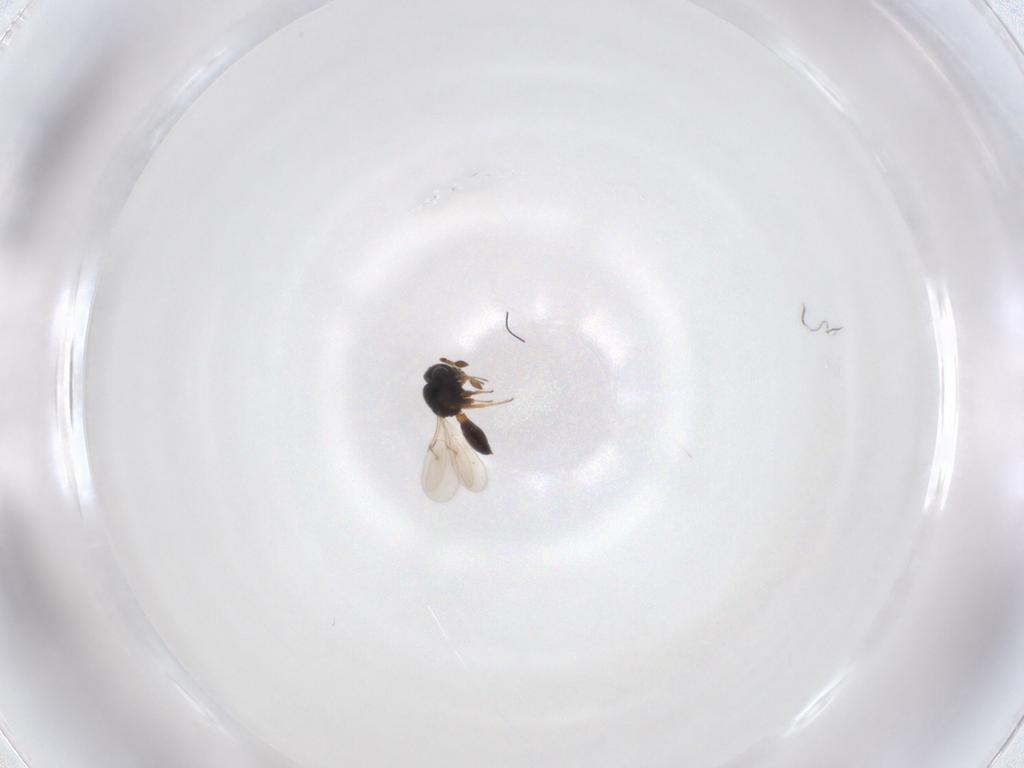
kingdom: Animalia
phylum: Arthropoda
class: Insecta
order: Hymenoptera
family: Scelionidae
